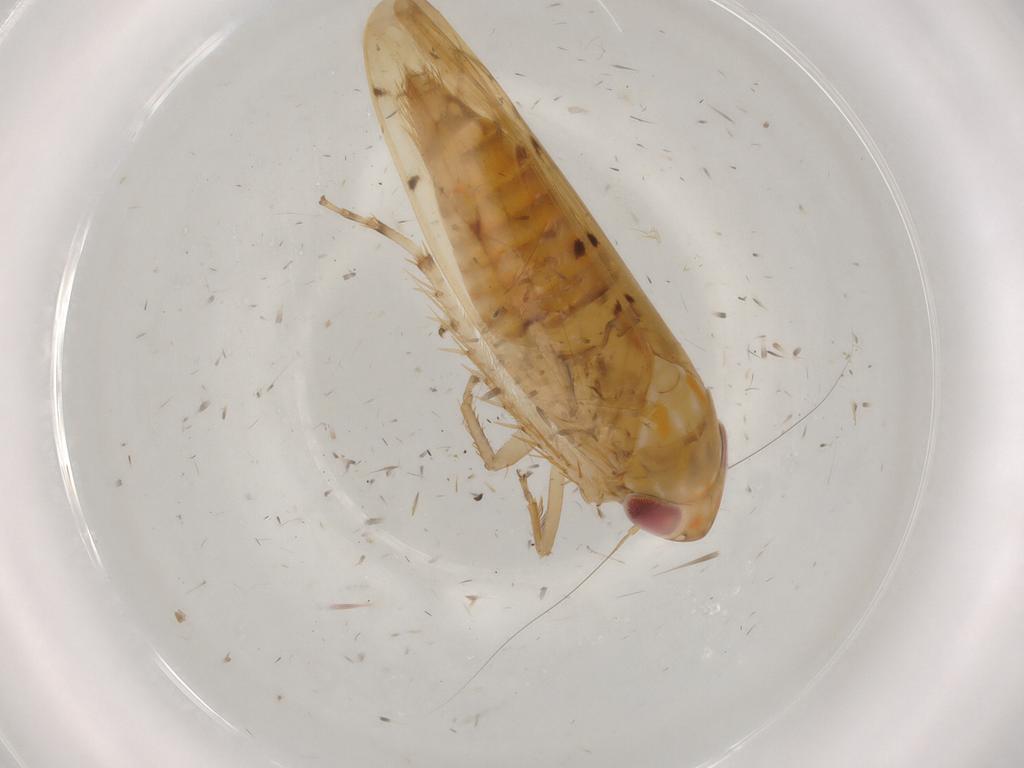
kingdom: Animalia
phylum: Arthropoda
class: Insecta
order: Hemiptera
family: Cicadellidae
